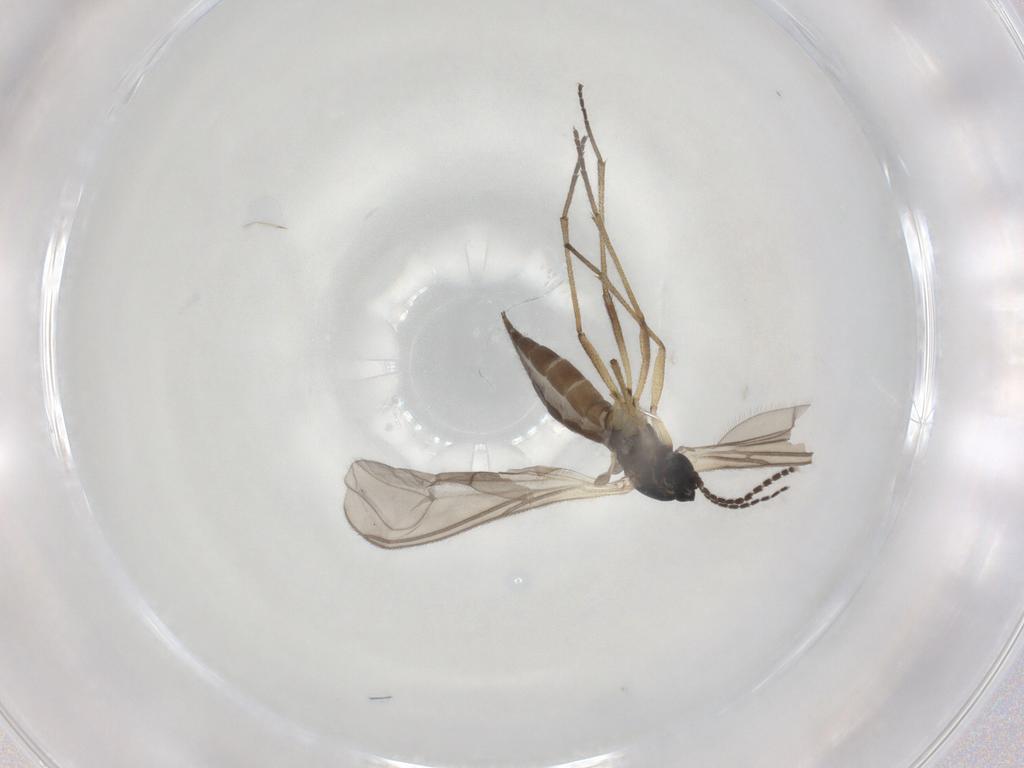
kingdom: Animalia
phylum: Arthropoda
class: Insecta
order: Diptera
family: Sciaridae
